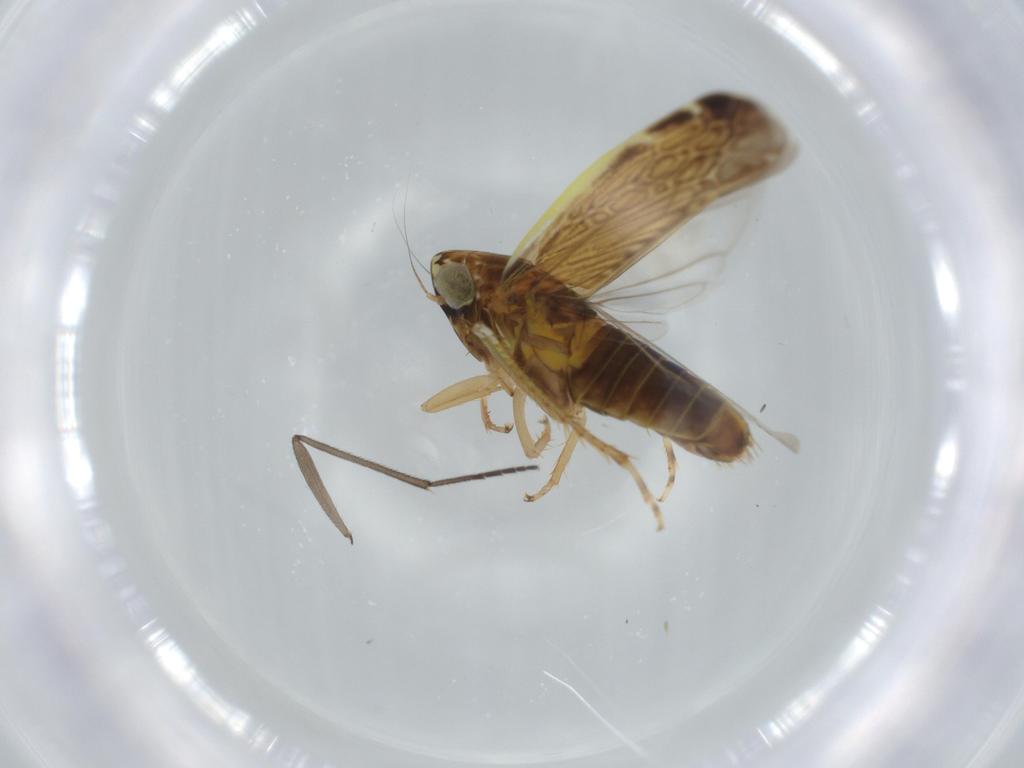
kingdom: Animalia
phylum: Arthropoda
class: Insecta
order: Hemiptera
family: Cicadellidae
